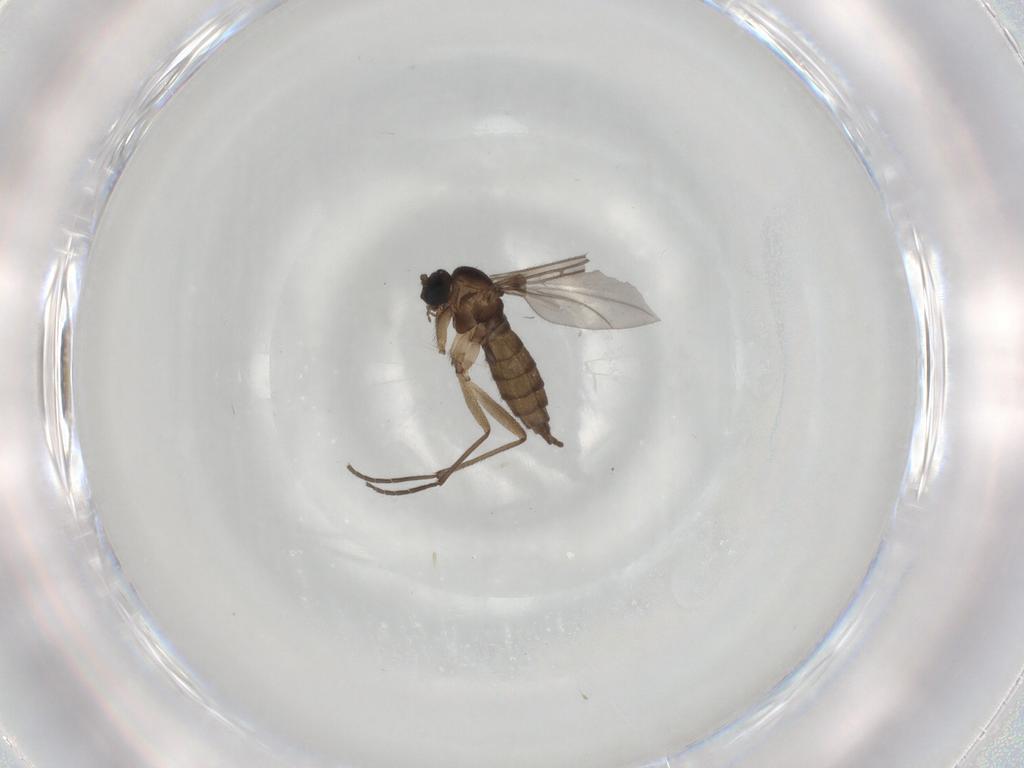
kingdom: Animalia
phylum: Arthropoda
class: Insecta
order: Diptera
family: Sciaridae
